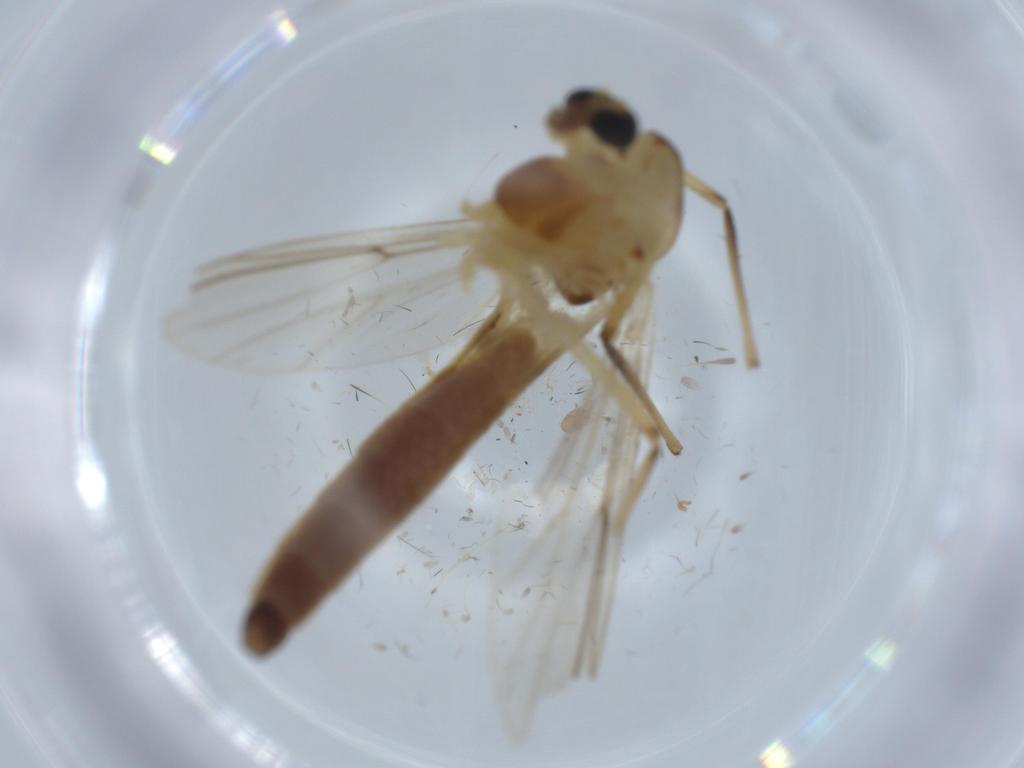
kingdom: Animalia
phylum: Arthropoda
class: Insecta
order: Diptera
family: Chironomidae
